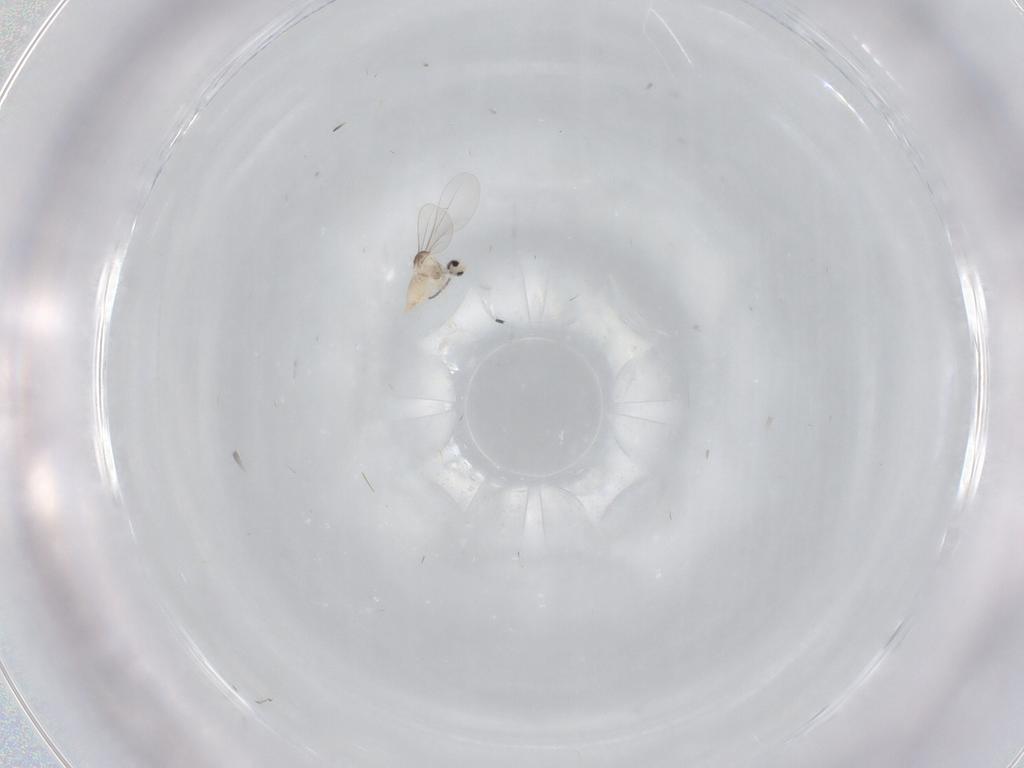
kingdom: Animalia
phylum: Arthropoda
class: Insecta
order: Diptera
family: Cecidomyiidae
